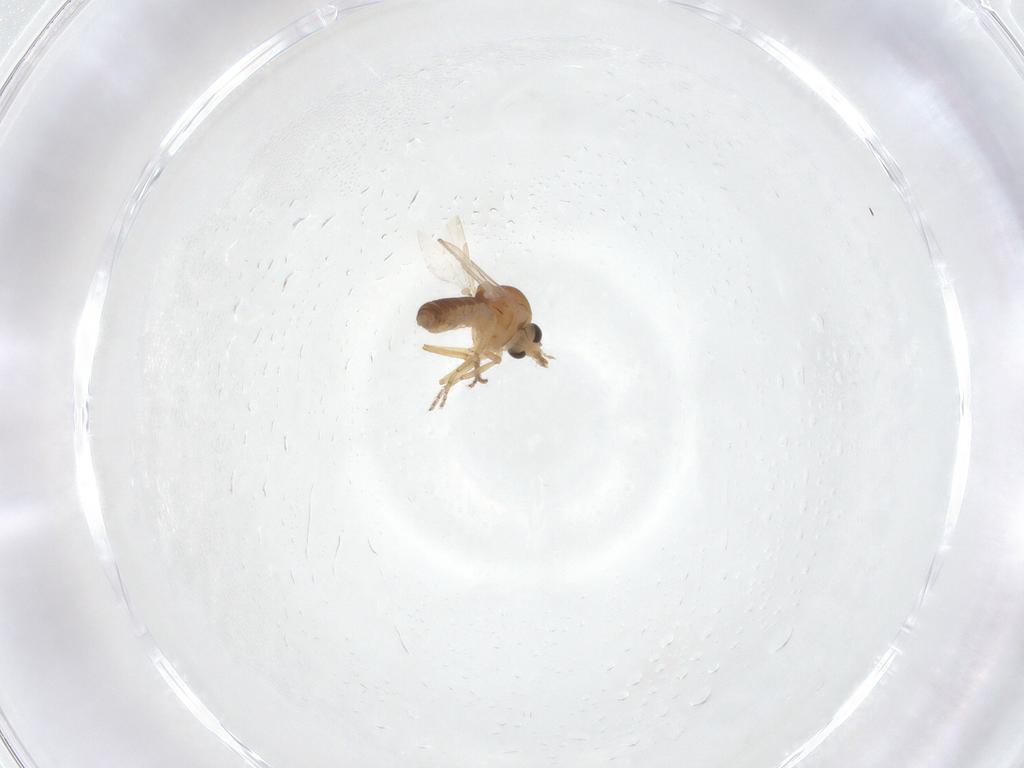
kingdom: Animalia
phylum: Arthropoda
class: Insecta
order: Diptera
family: Ceratopogonidae
